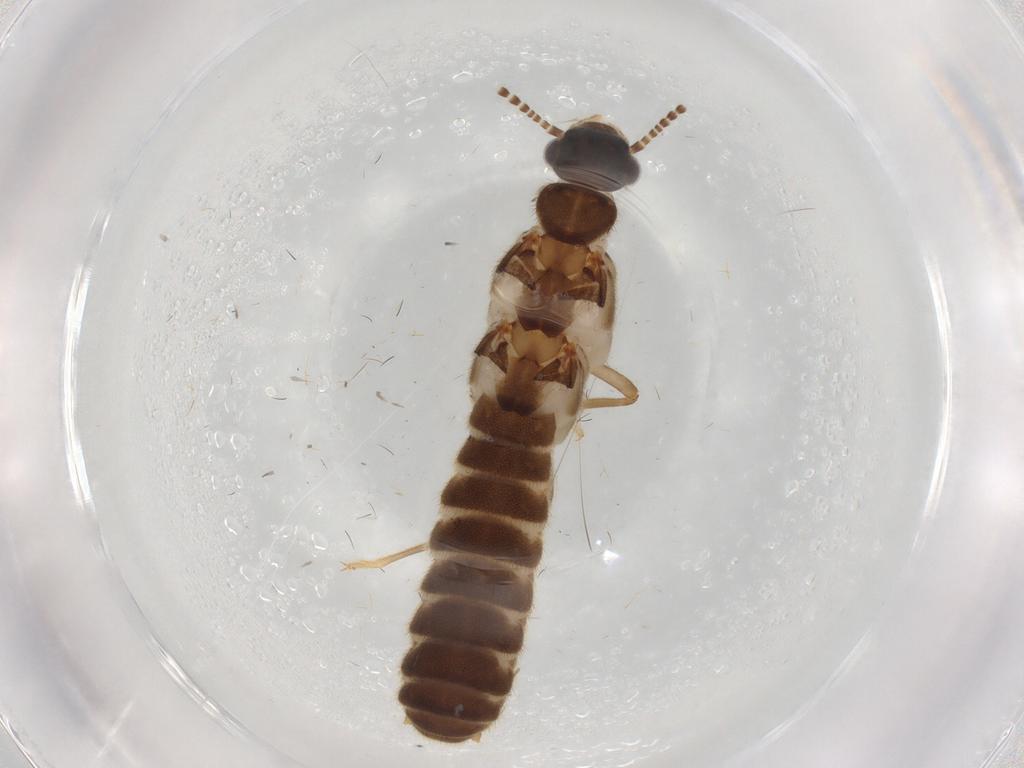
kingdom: Animalia
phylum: Arthropoda
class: Insecta
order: Blattodea
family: Termitidae
